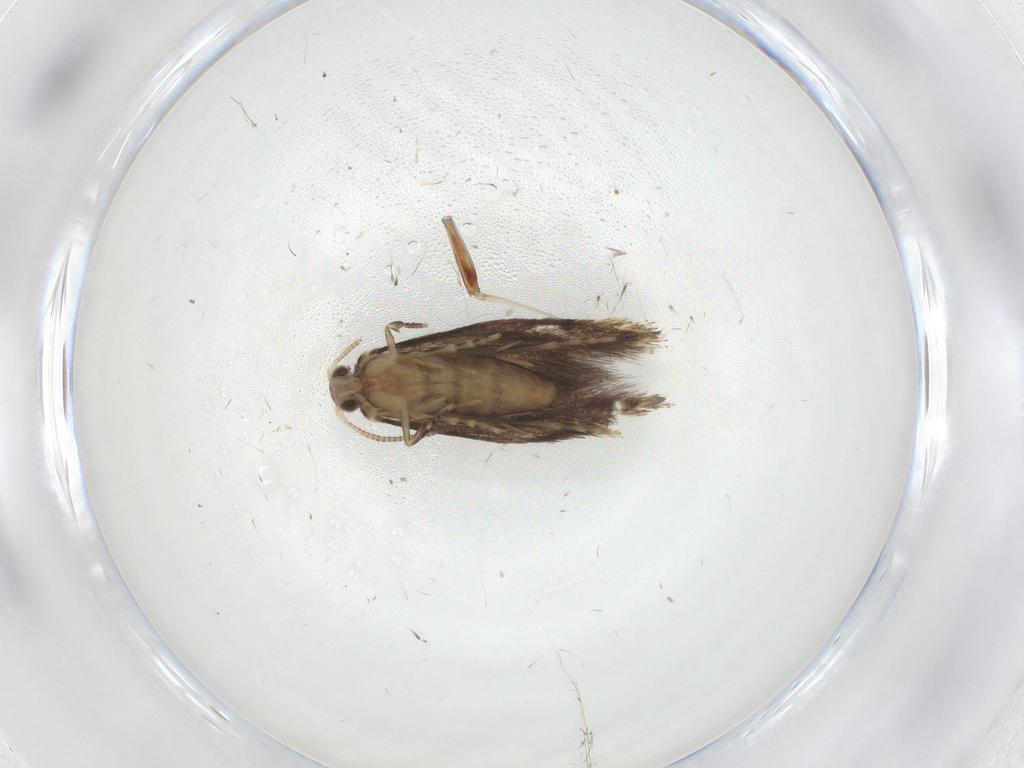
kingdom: Animalia
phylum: Arthropoda
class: Insecta
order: Lepidoptera
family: Tineidae
